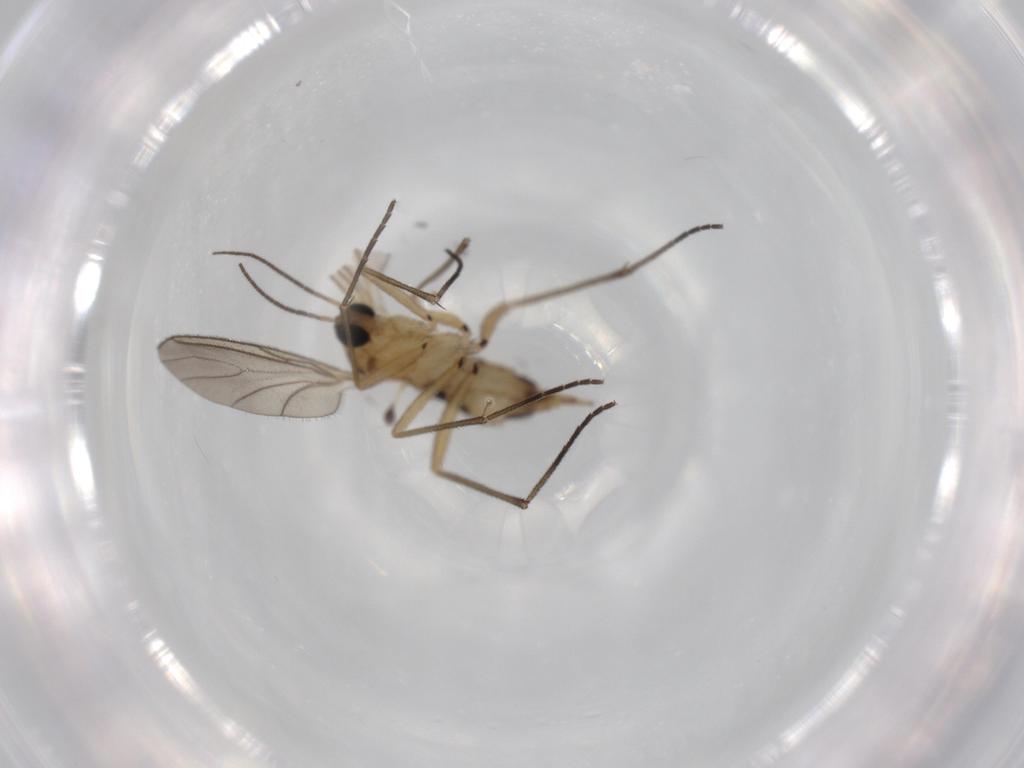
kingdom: Animalia
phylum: Arthropoda
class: Insecta
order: Diptera
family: Sciaridae
